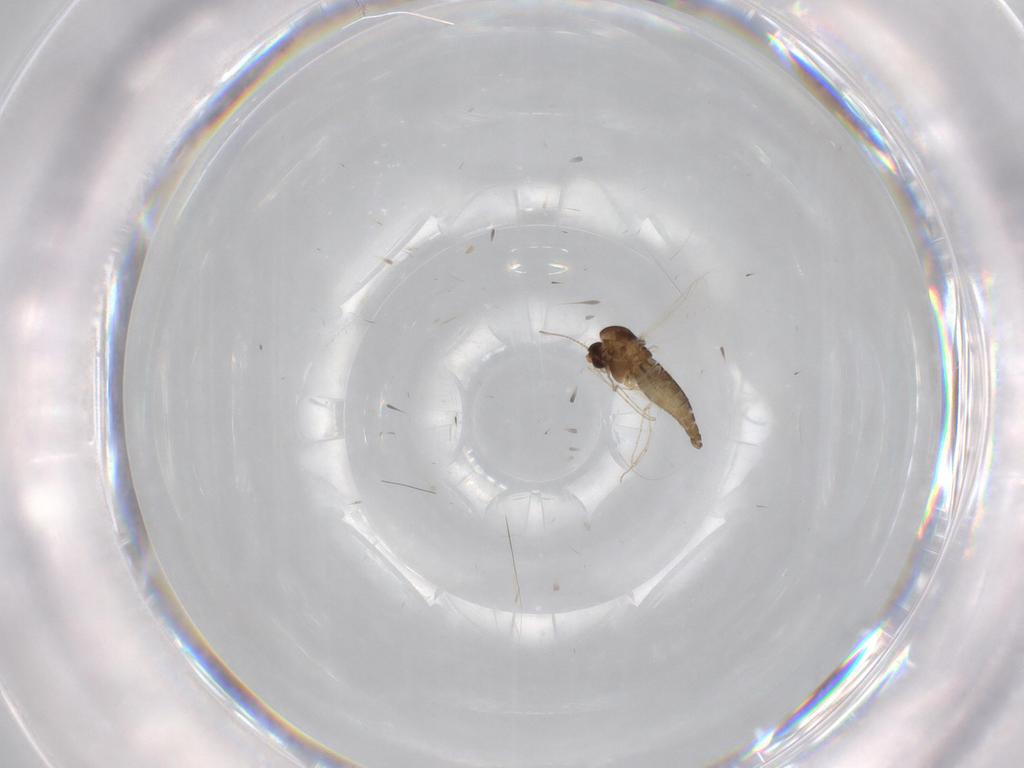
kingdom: Animalia
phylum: Arthropoda
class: Insecta
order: Diptera
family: Chironomidae
